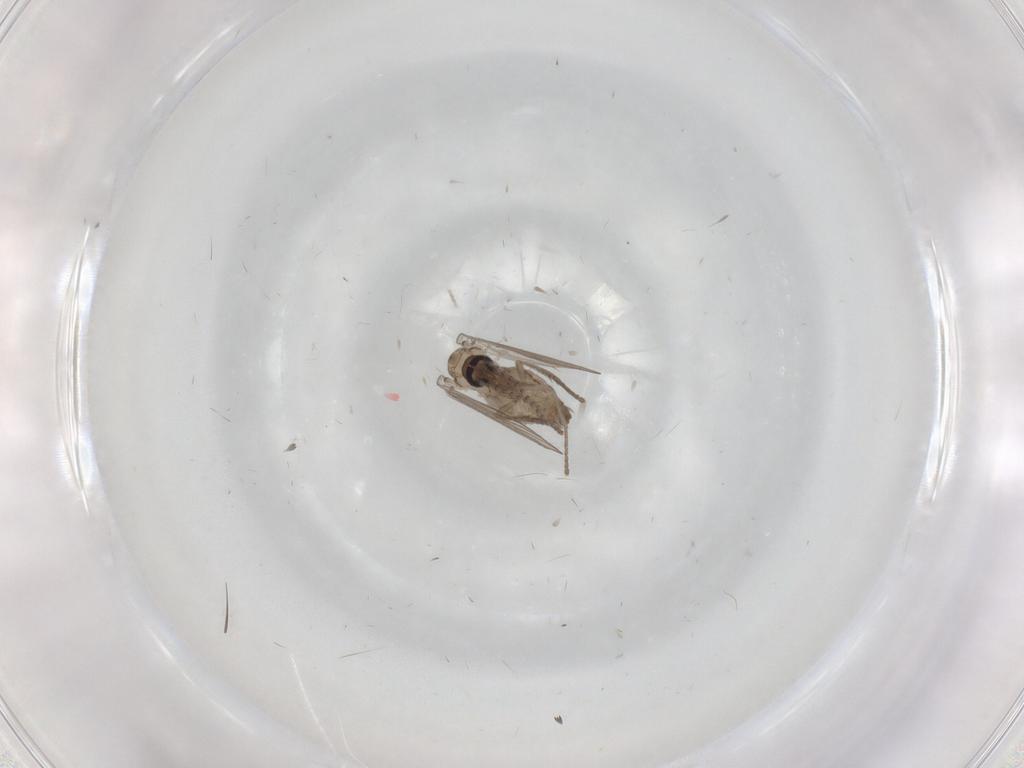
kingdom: Animalia
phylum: Arthropoda
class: Insecta
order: Diptera
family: Psychodidae
